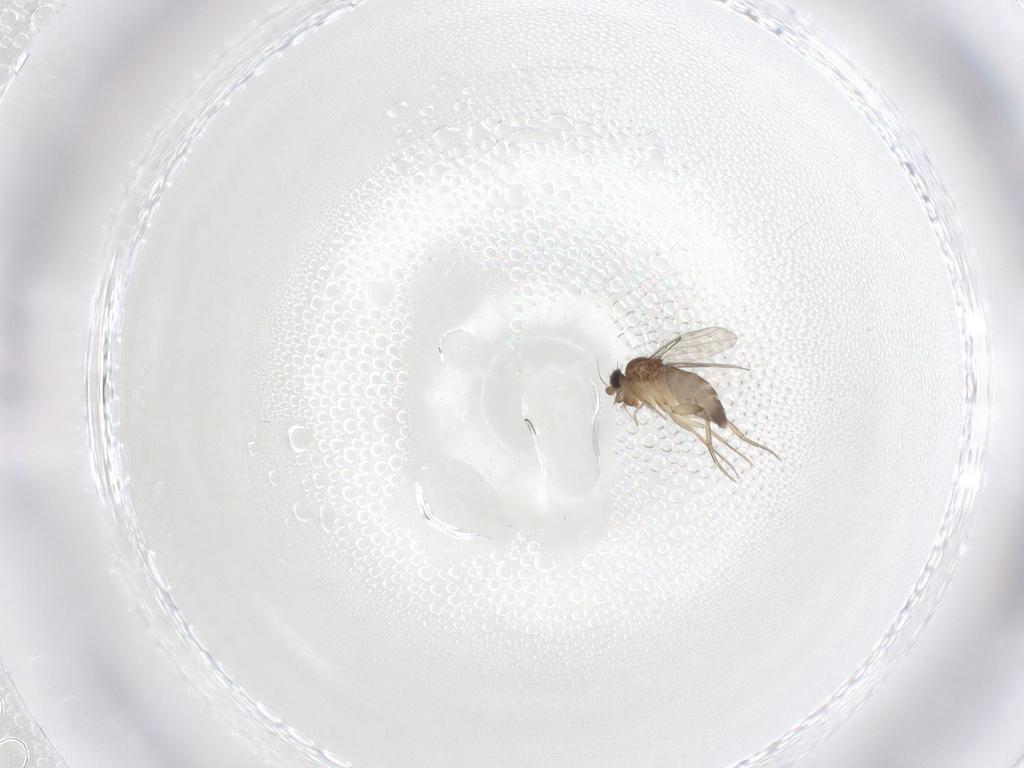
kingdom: Animalia
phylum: Arthropoda
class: Insecta
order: Diptera
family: Phoridae
